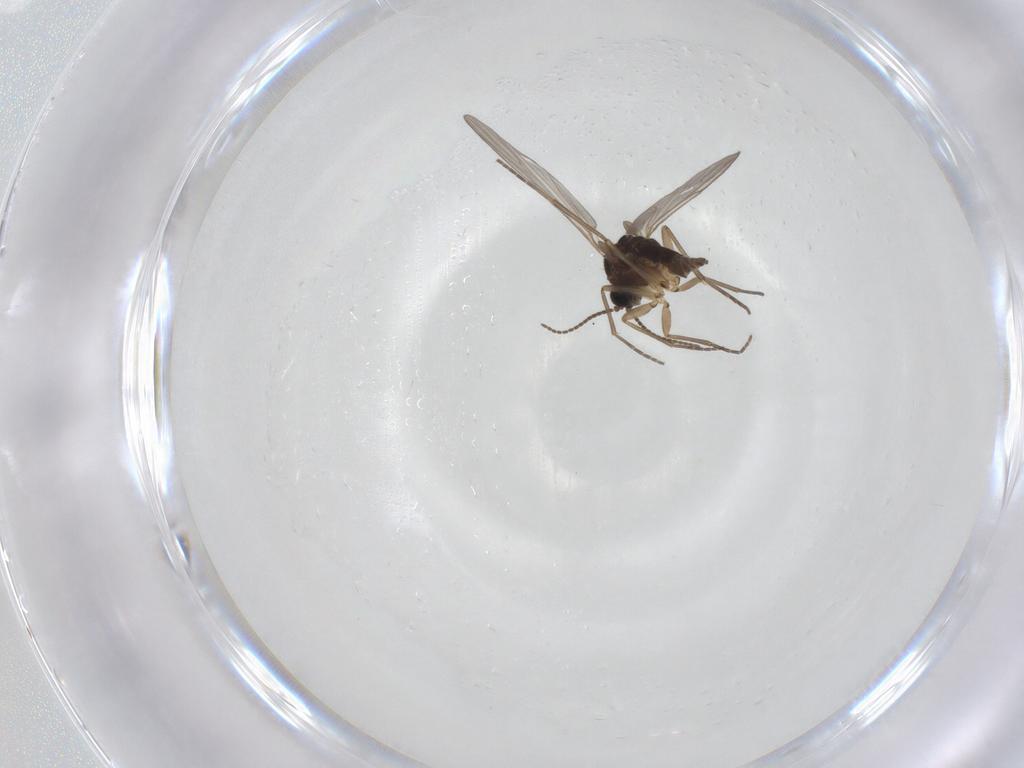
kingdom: Animalia
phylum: Arthropoda
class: Insecta
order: Diptera
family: Sciaridae
